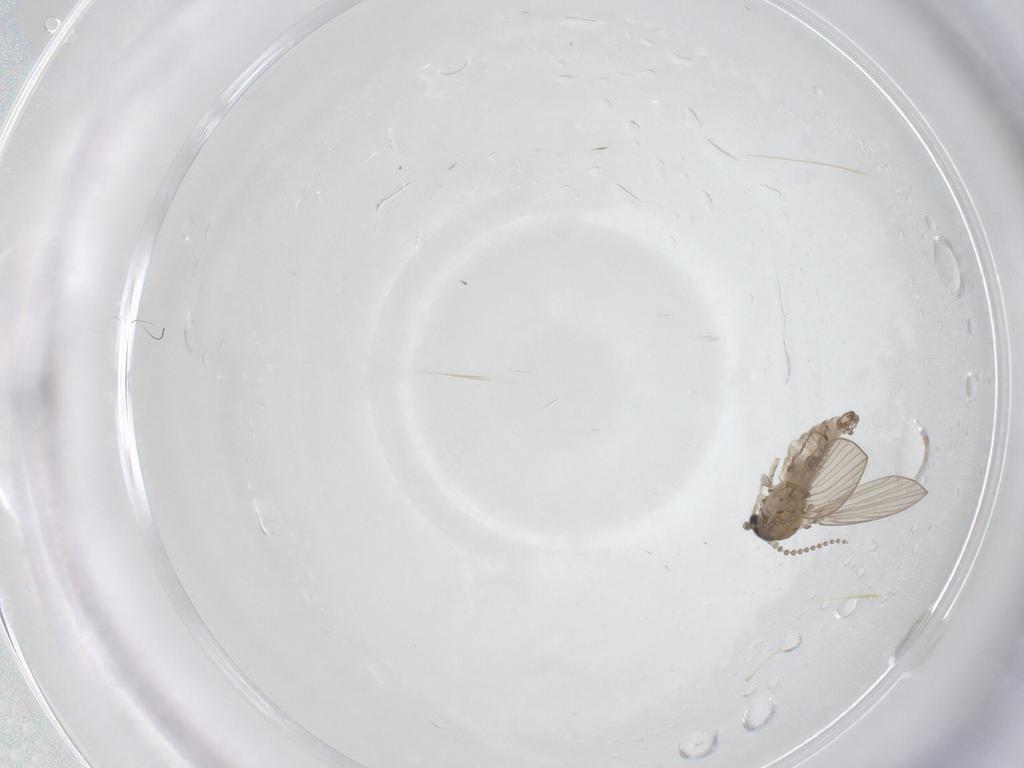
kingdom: Animalia
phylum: Arthropoda
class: Insecta
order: Diptera
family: Psychodidae
